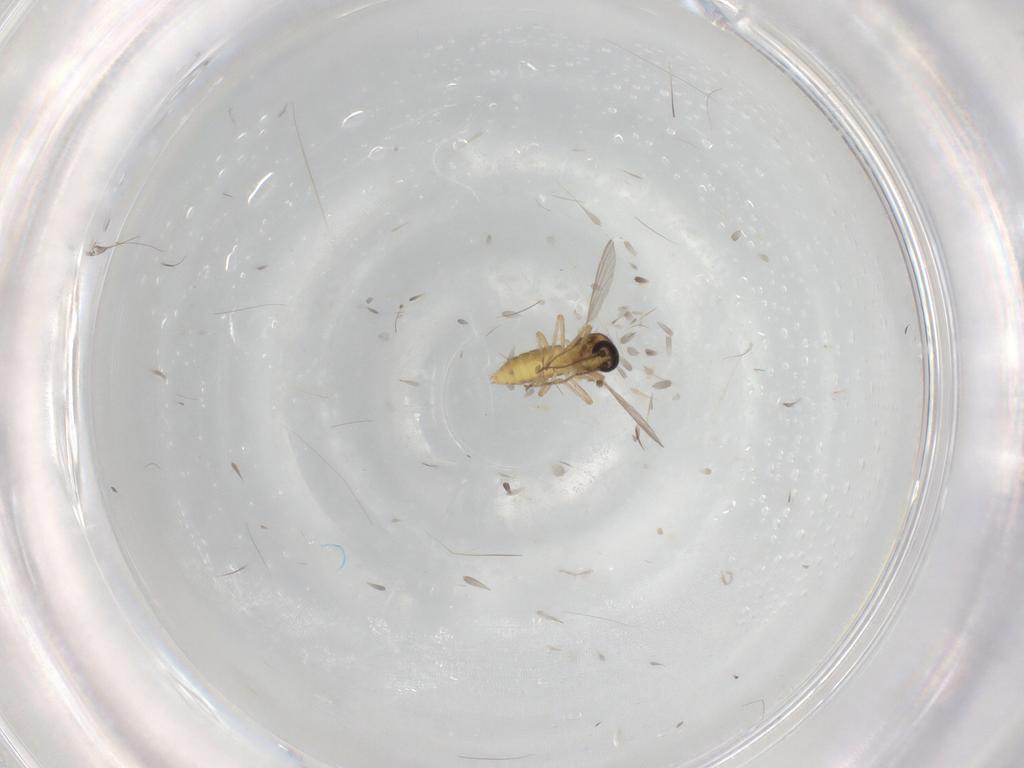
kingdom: Animalia
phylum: Arthropoda
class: Insecta
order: Diptera
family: Ceratopogonidae
